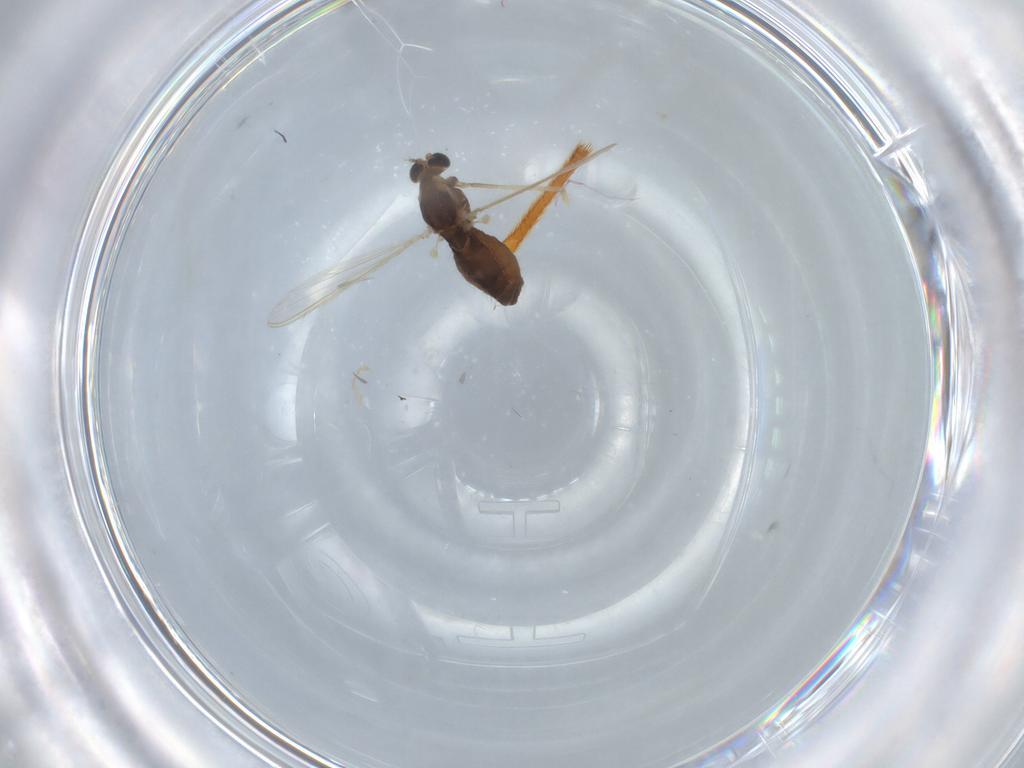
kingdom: Animalia
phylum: Arthropoda
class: Insecta
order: Diptera
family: Chironomidae
